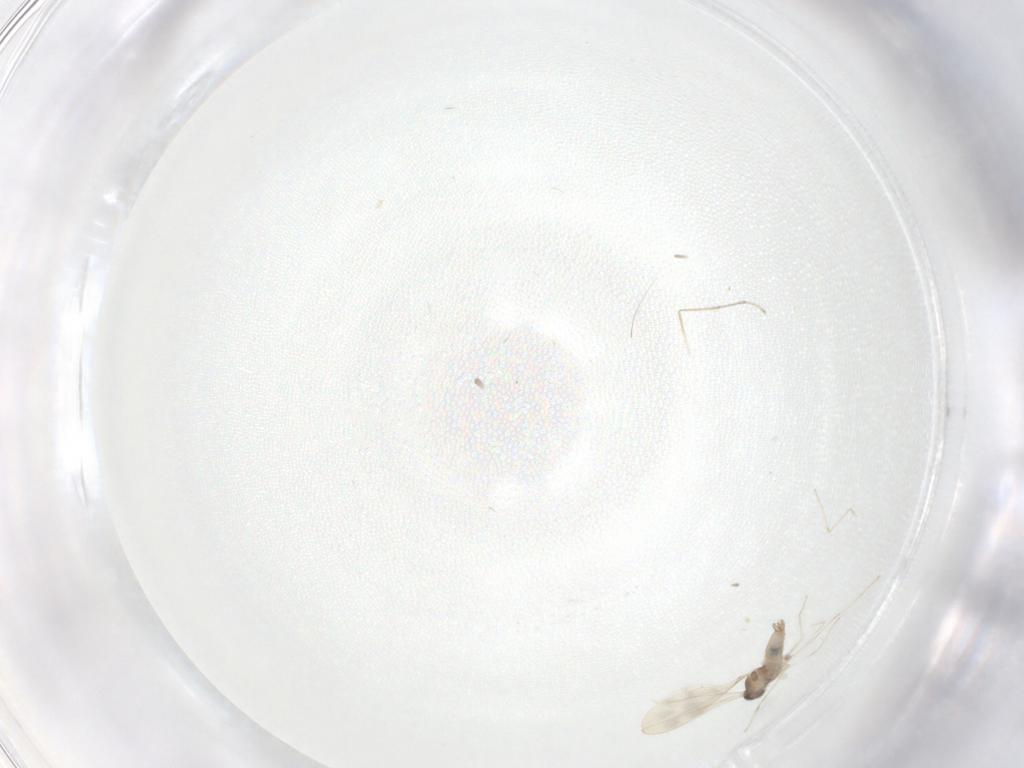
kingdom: Animalia
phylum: Arthropoda
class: Insecta
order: Diptera
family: Cecidomyiidae
